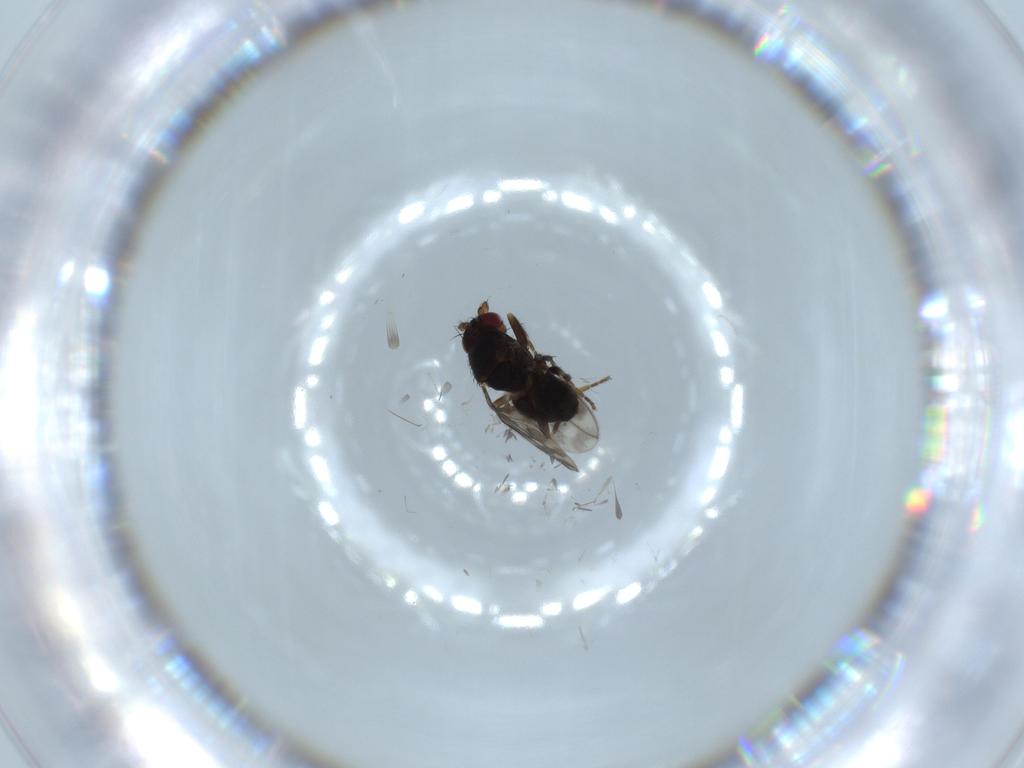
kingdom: Animalia
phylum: Arthropoda
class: Insecta
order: Diptera
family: Sphaeroceridae
